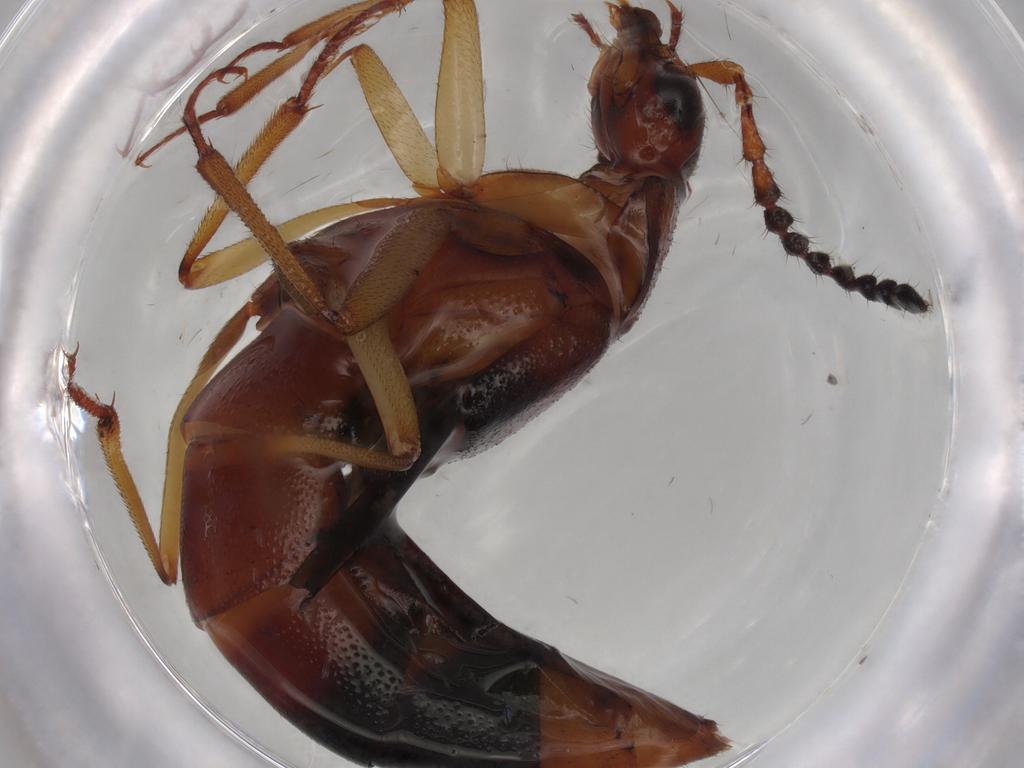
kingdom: Animalia
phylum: Arthropoda
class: Insecta
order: Coleoptera
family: Staphylinidae
